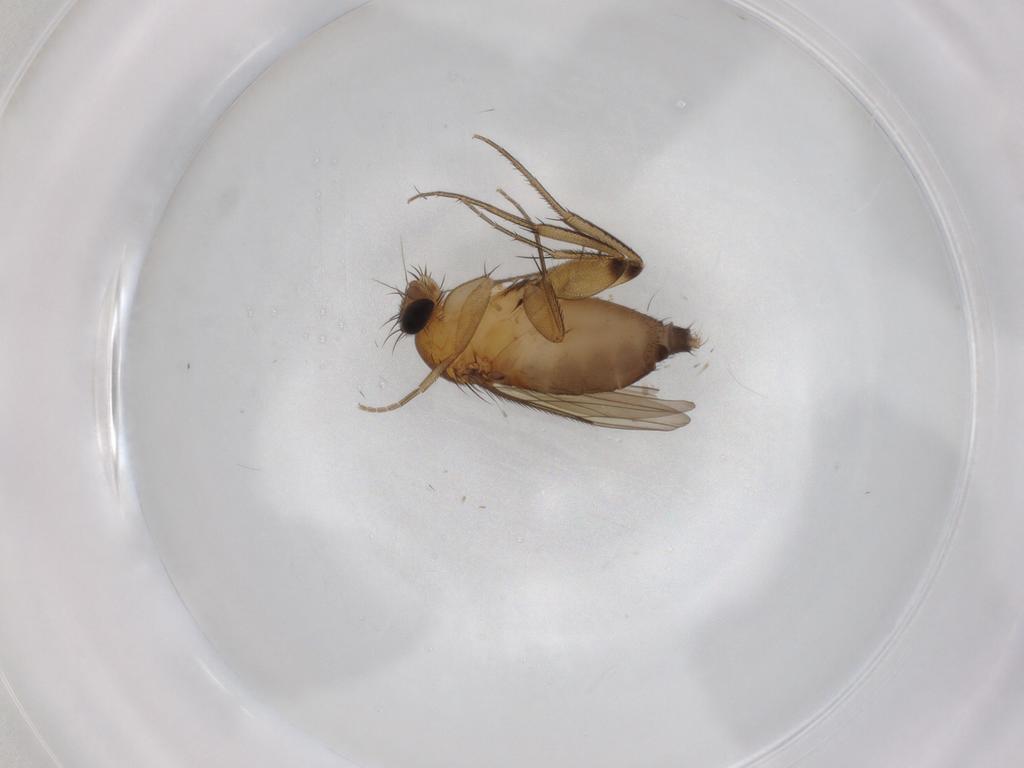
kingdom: Animalia
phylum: Arthropoda
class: Insecta
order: Diptera
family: Phoridae
